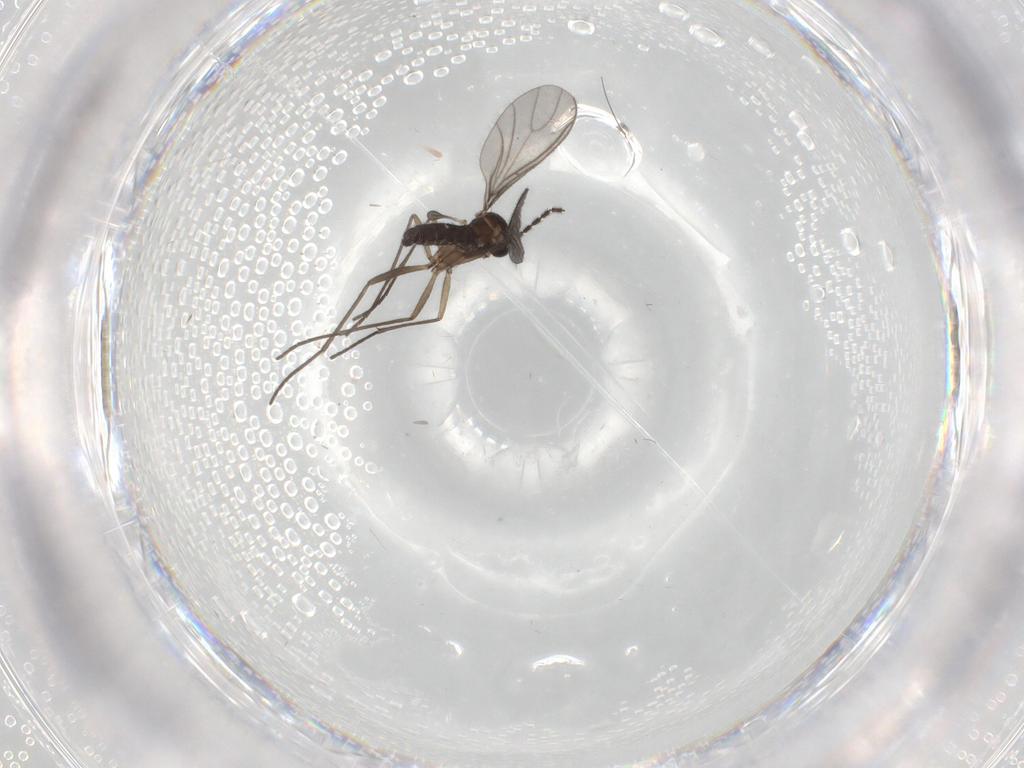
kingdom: Animalia
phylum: Arthropoda
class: Insecta
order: Diptera
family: Sciaridae
